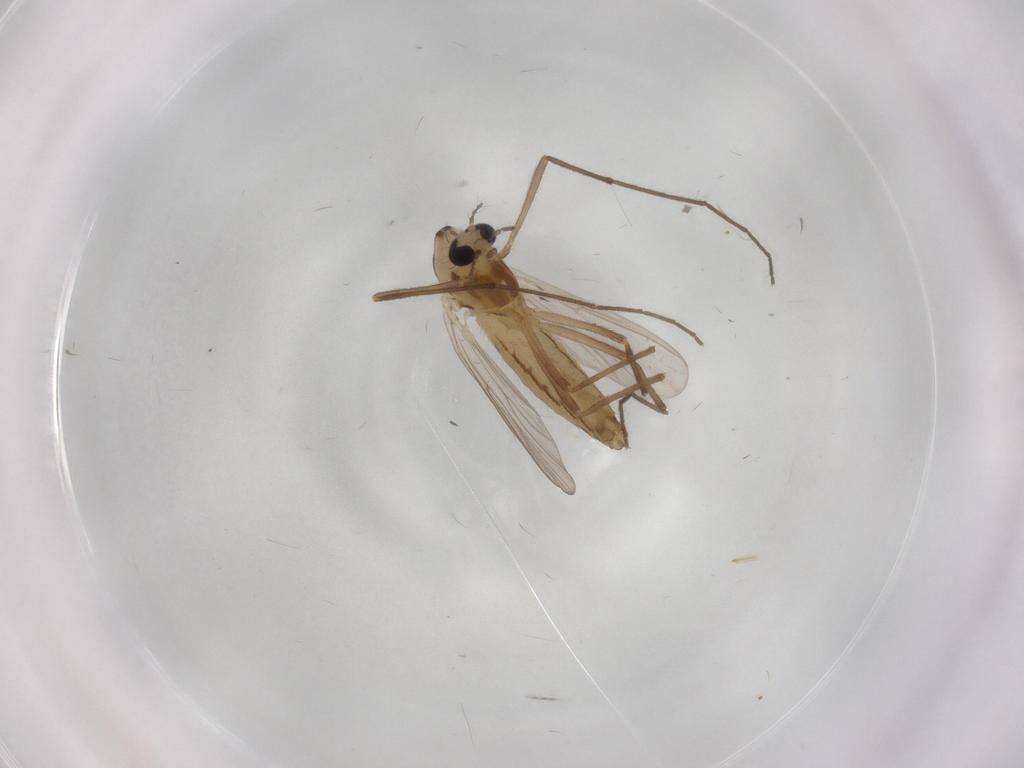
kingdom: Animalia
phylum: Arthropoda
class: Insecta
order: Diptera
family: Chironomidae
